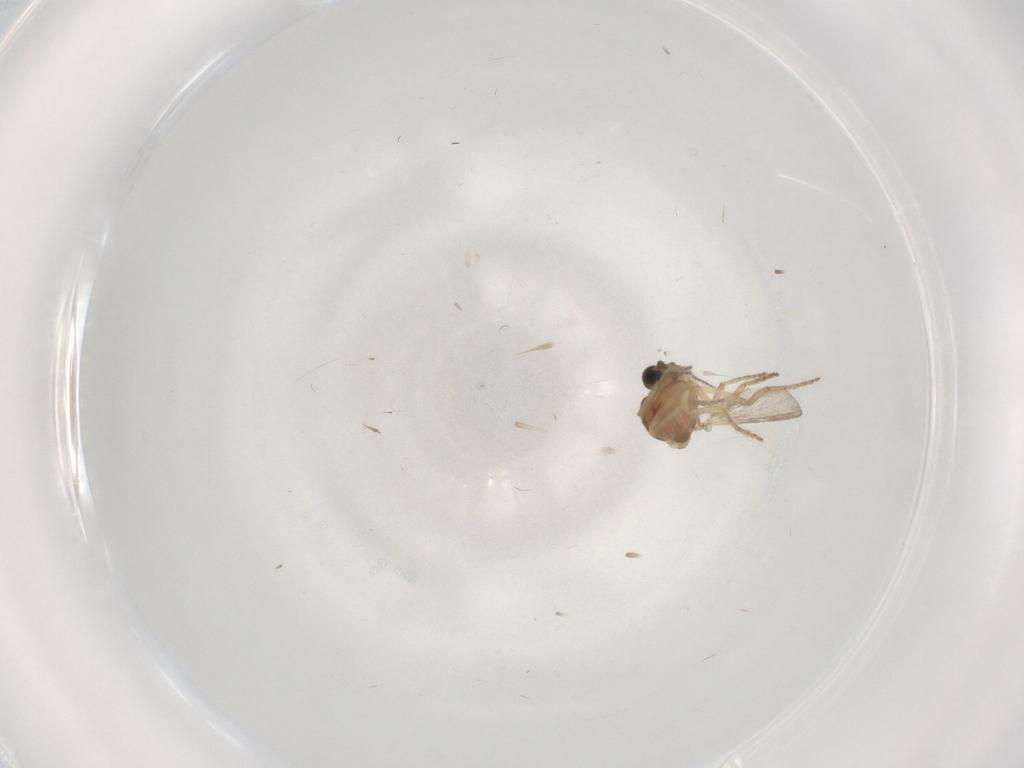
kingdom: Animalia
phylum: Arthropoda
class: Insecta
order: Diptera
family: Ceratopogonidae
